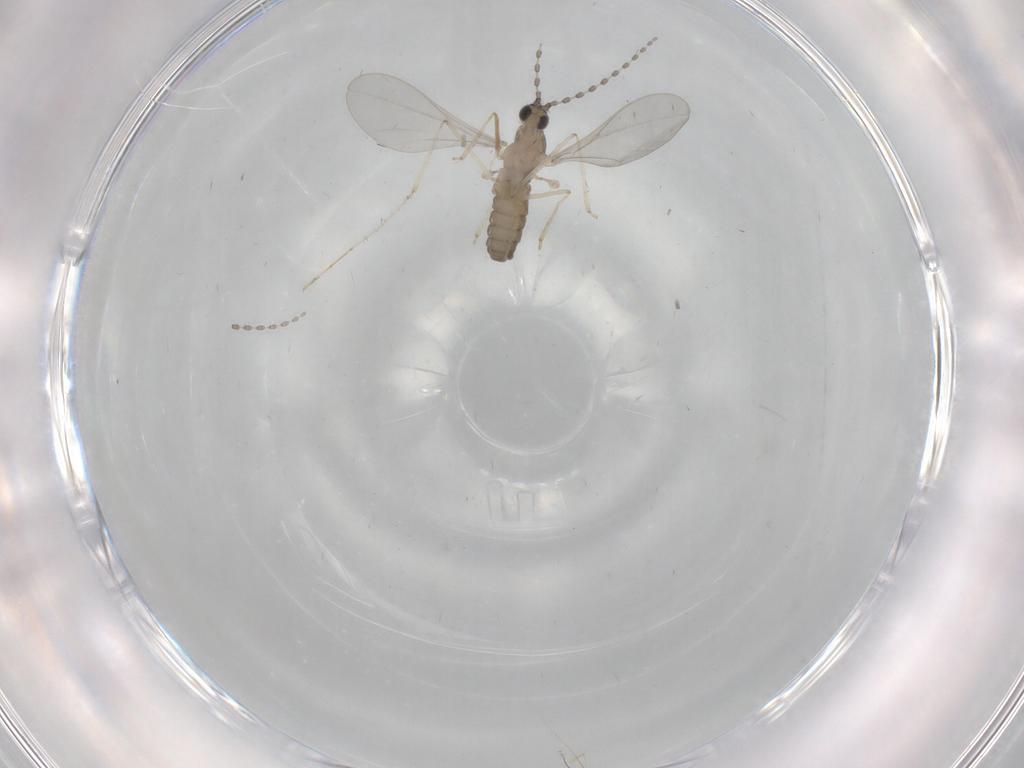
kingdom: Animalia
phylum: Arthropoda
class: Insecta
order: Diptera
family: Cecidomyiidae
